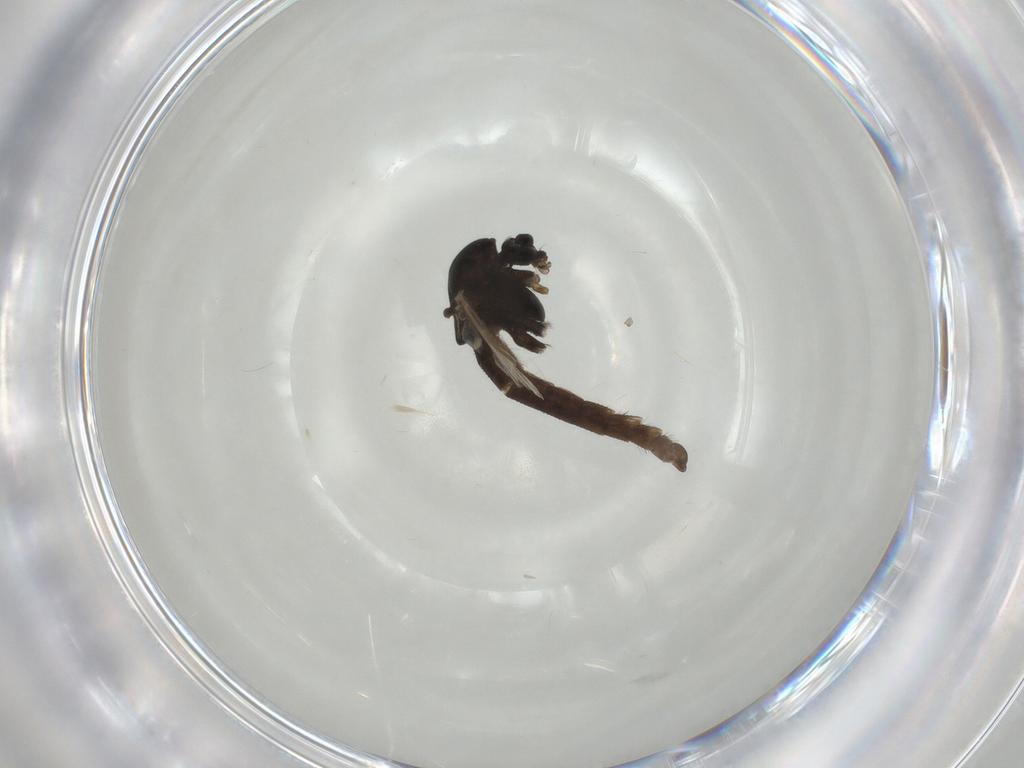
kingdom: Animalia
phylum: Arthropoda
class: Insecta
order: Diptera
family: Chironomidae
